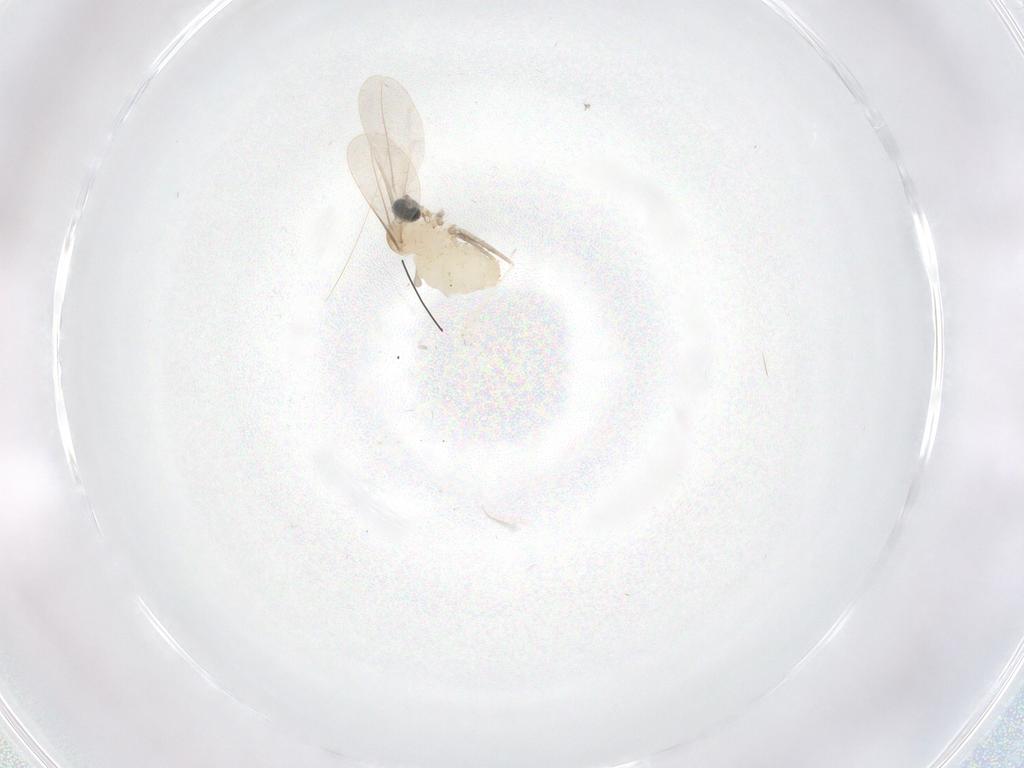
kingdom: Animalia
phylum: Arthropoda
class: Insecta
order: Diptera
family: Cecidomyiidae
